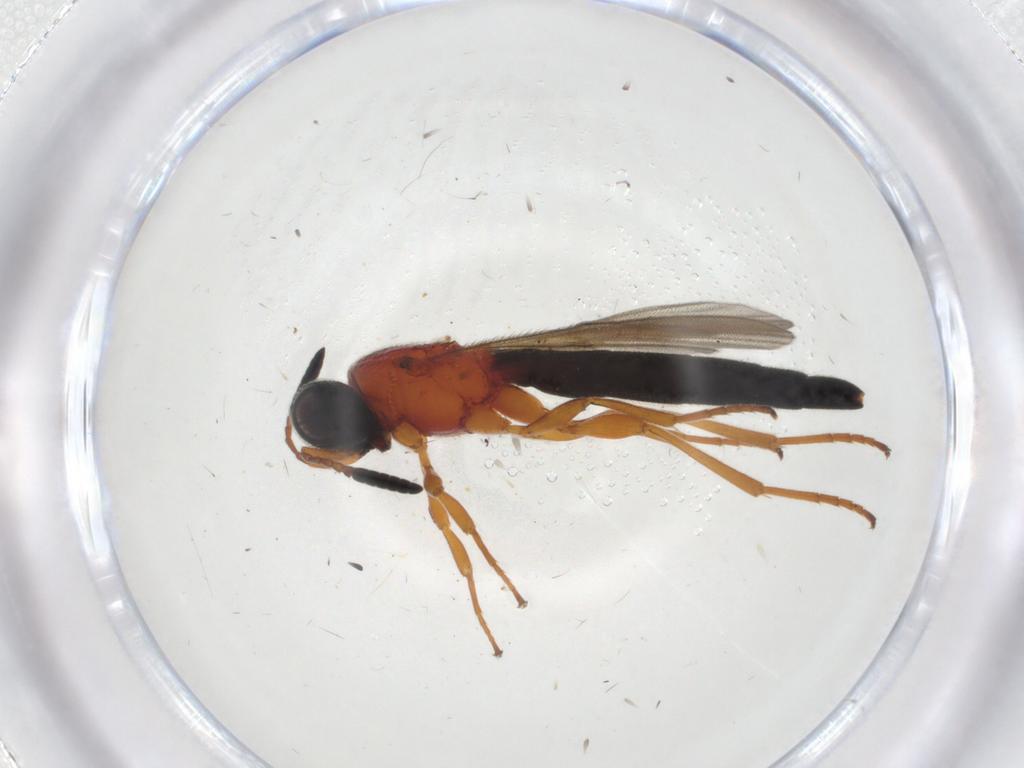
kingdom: Animalia
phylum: Arthropoda
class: Insecta
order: Hymenoptera
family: Scelionidae
